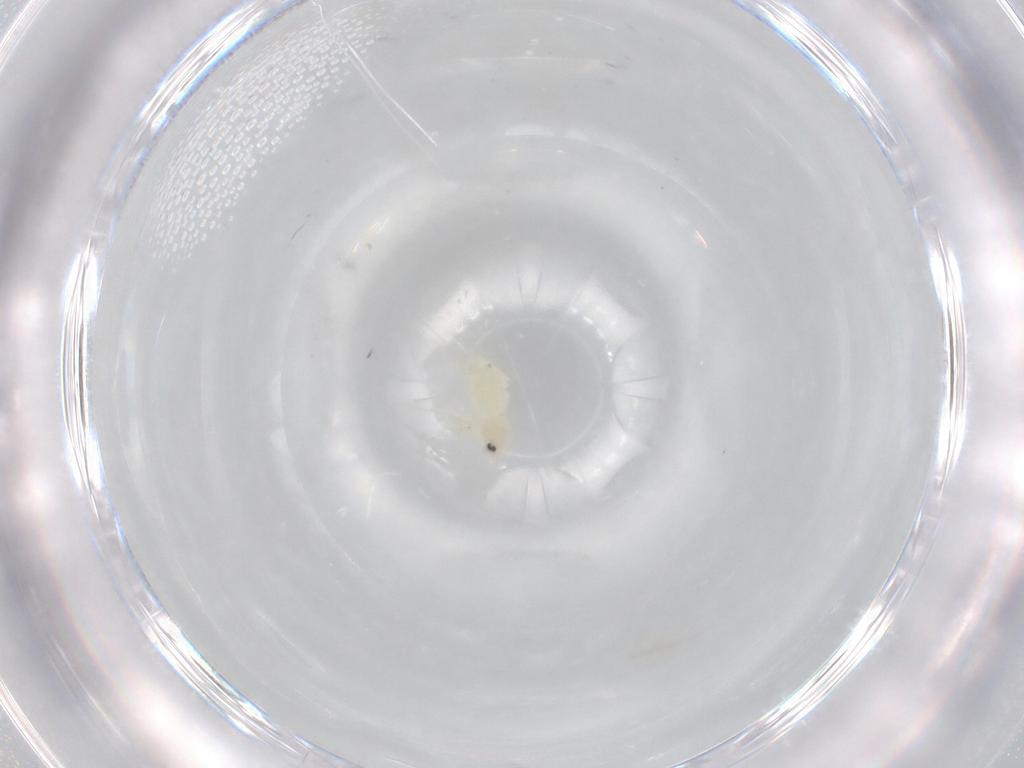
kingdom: Animalia
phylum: Arthropoda
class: Insecta
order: Hemiptera
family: Aleyrodidae
